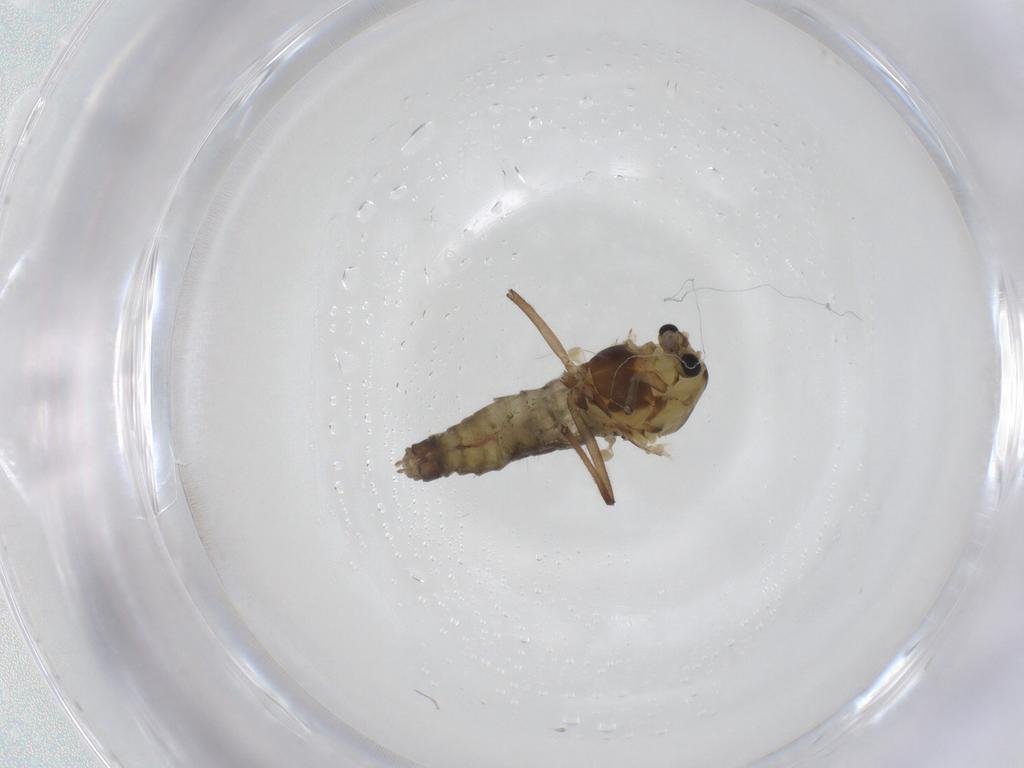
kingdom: Animalia
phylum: Arthropoda
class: Insecta
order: Diptera
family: Chironomidae
